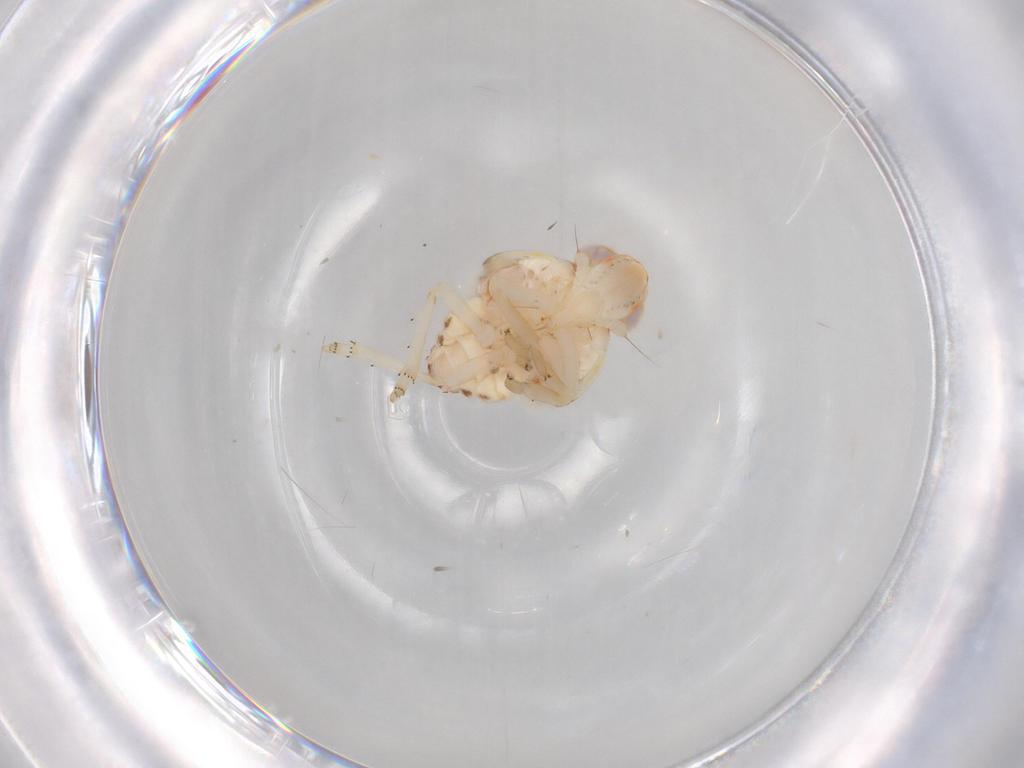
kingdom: Animalia
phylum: Arthropoda
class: Insecta
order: Hemiptera
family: Nogodinidae
